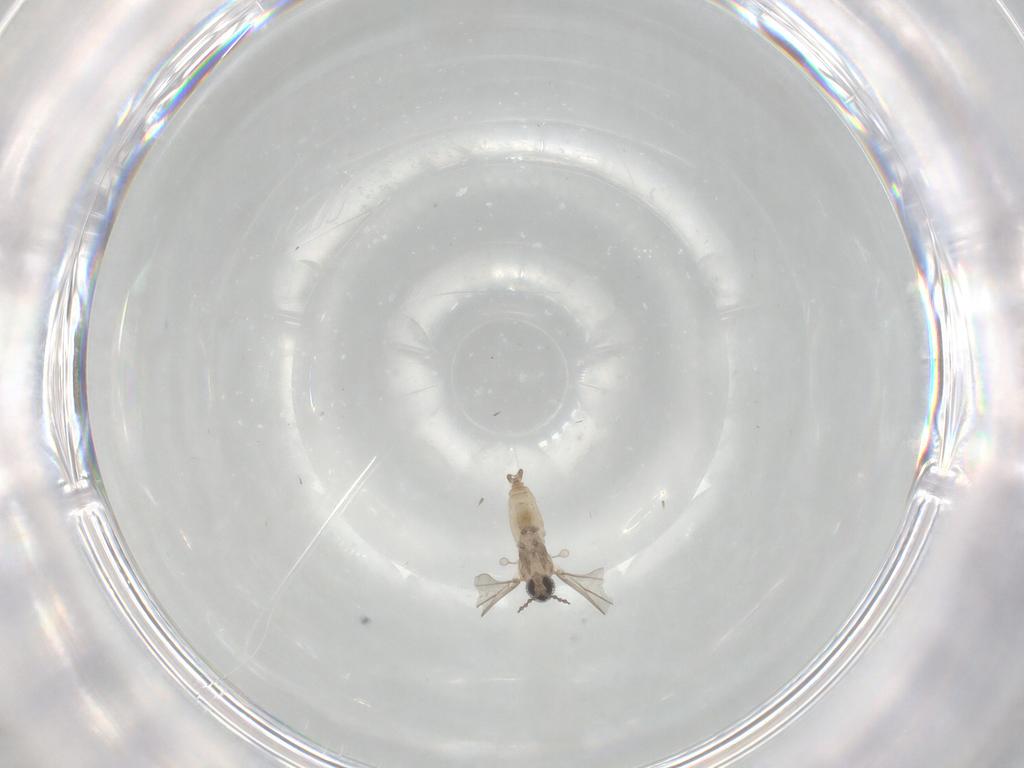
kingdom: Animalia
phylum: Arthropoda
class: Insecta
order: Diptera
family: Cecidomyiidae
